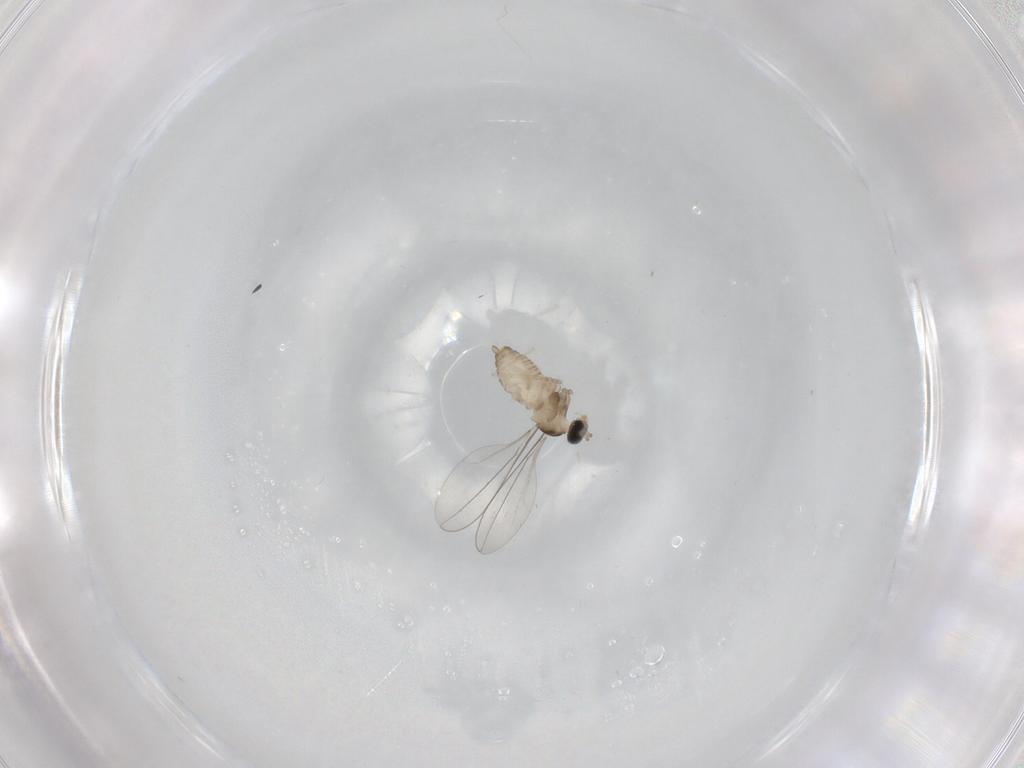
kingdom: Animalia
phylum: Arthropoda
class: Insecta
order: Diptera
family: Cecidomyiidae
